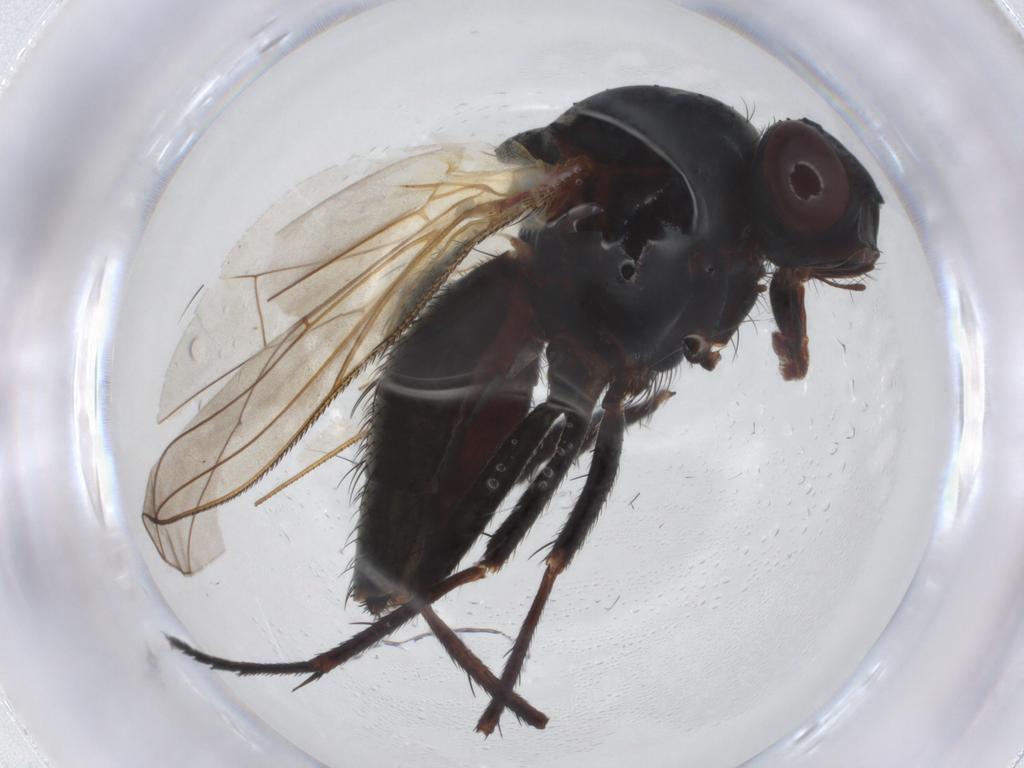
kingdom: Animalia
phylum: Arthropoda
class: Insecta
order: Diptera
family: Anthomyiidae
